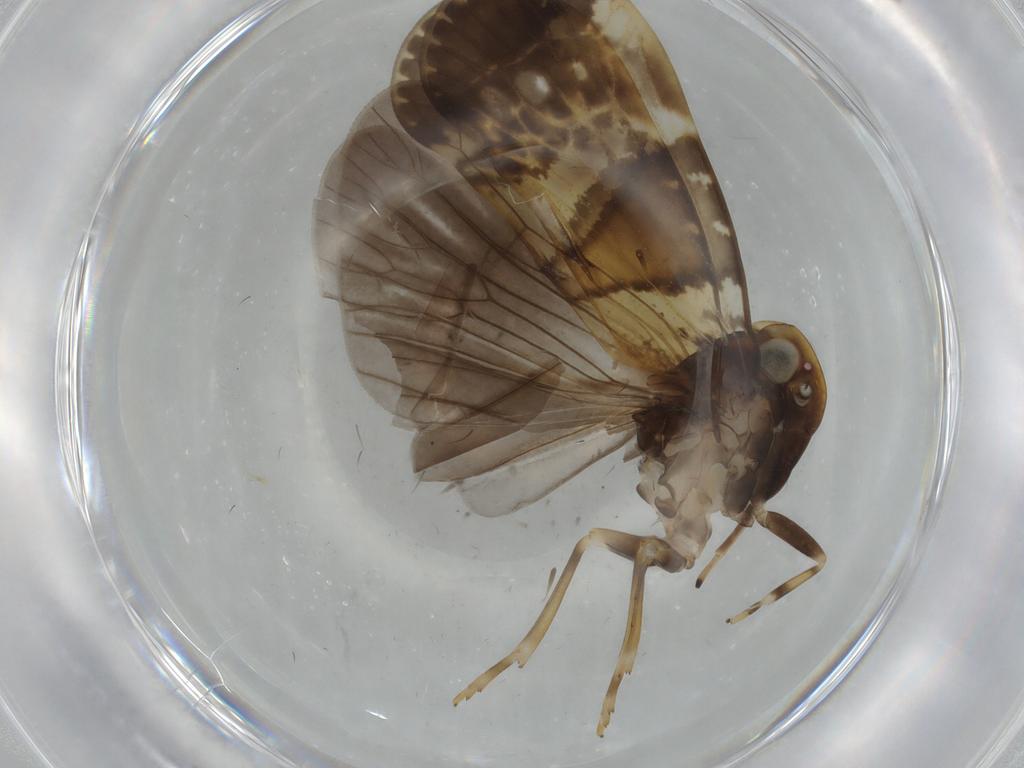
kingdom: Animalia
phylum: Arthropoda
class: Insecta
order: Hemiptera
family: Cixiidae
